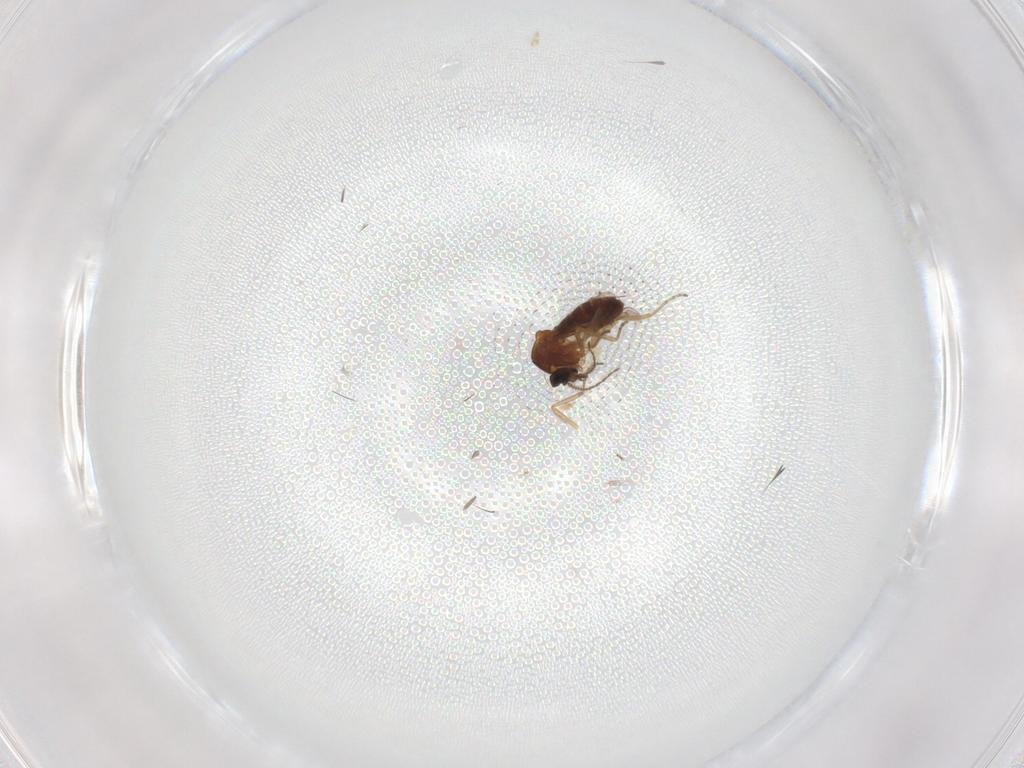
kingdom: Animalia
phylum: Arthropoda
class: Insecta
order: Diptera
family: Ceratopogonidae
